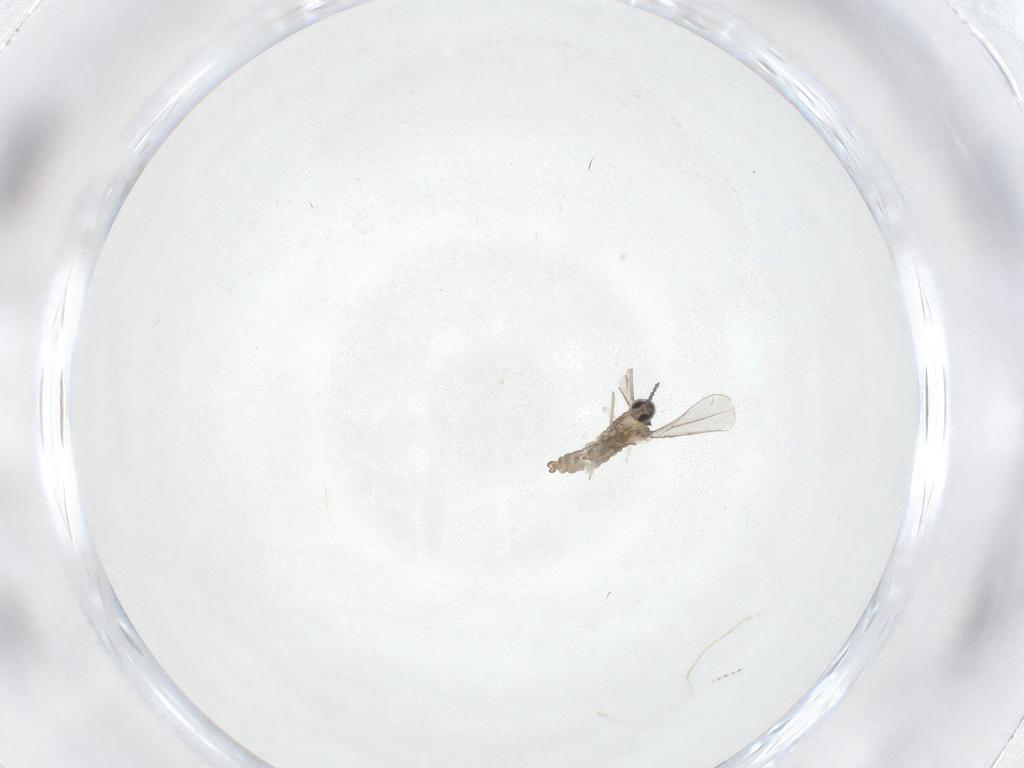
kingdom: Animalia
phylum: Arthropoda
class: Insecta
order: Diptera
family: Cecidomyiidae
